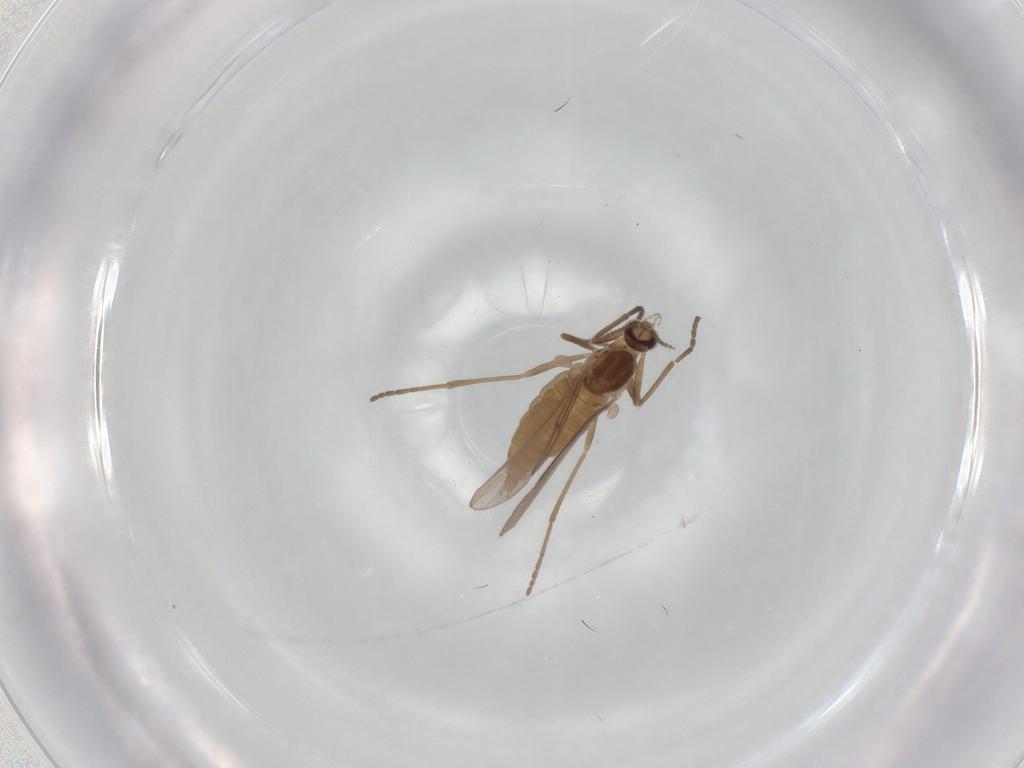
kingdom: Animalia
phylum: Arthropoda
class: Insecta
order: Diptera
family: Cecidomyiidae
